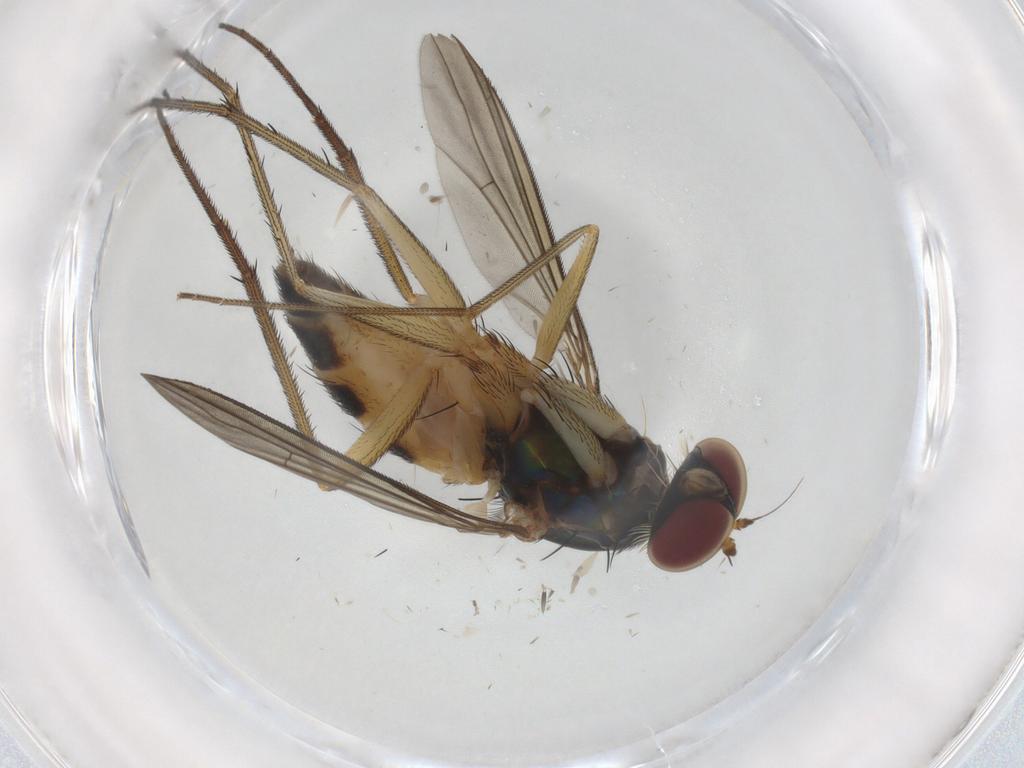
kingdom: Animalia
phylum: Arthropoda
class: Insecta
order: Diptera
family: Dolichopodidae
